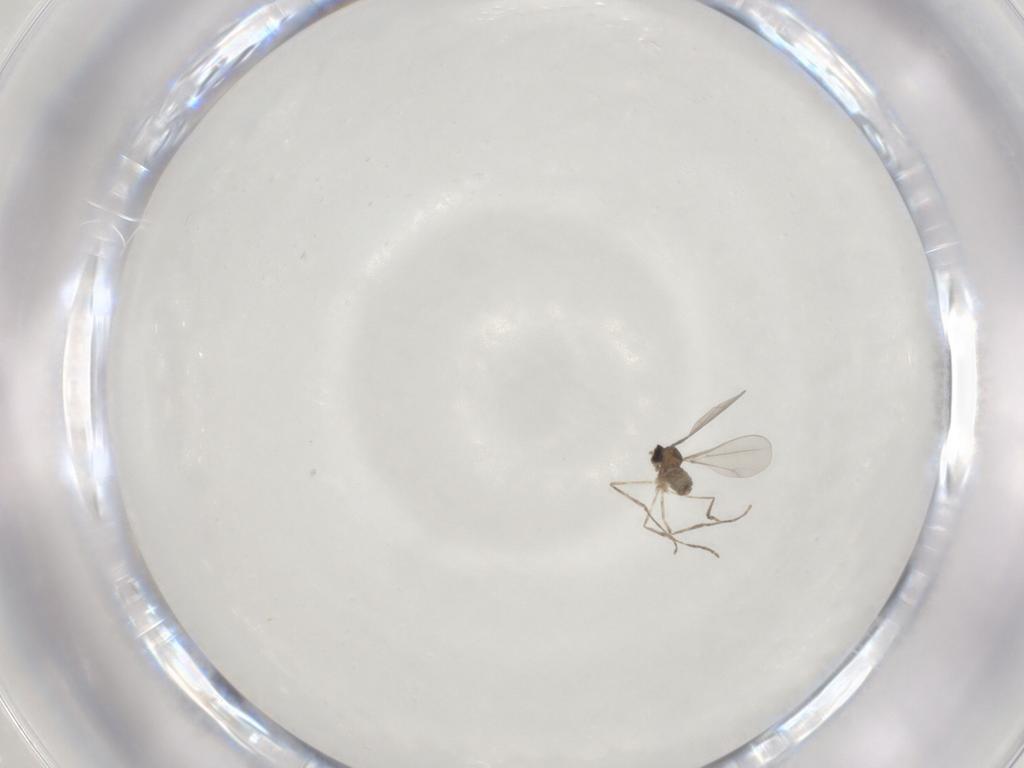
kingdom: Animalia
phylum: Arthropoda
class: Insecta
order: Diptera
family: Cecidomyiidae
